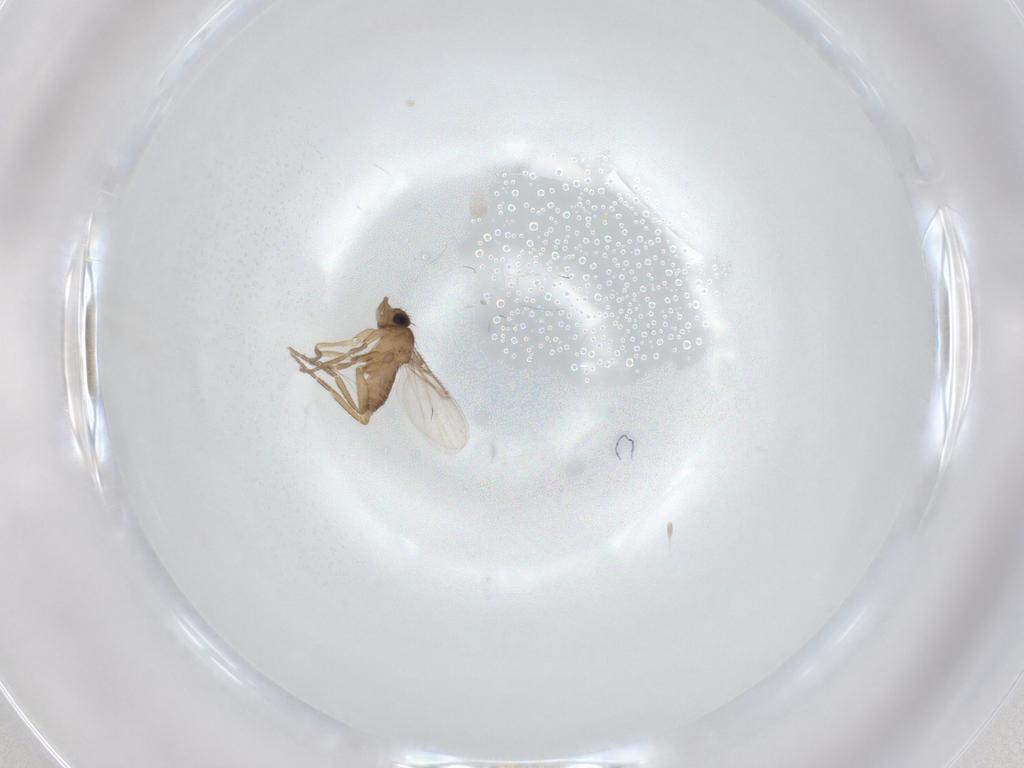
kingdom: Animalia
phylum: Arthropoda
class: Insecta
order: Diptera
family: Phoridae
